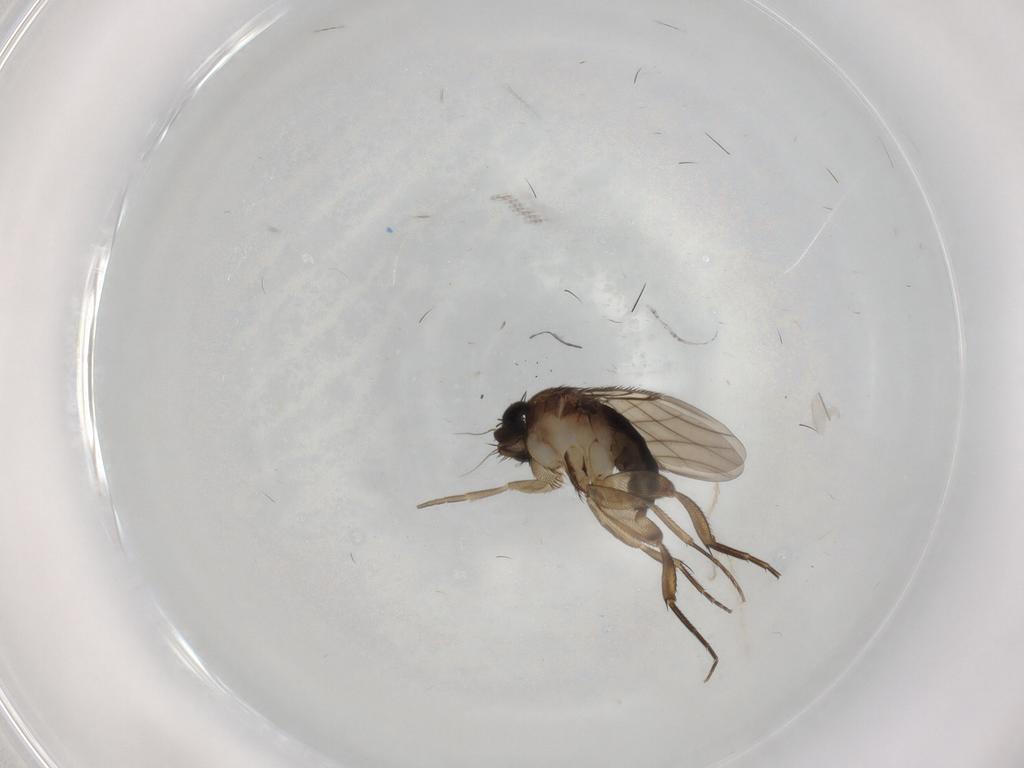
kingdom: Animalia
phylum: Arthropoda
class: Insecta
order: Diptera
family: Phoridae
